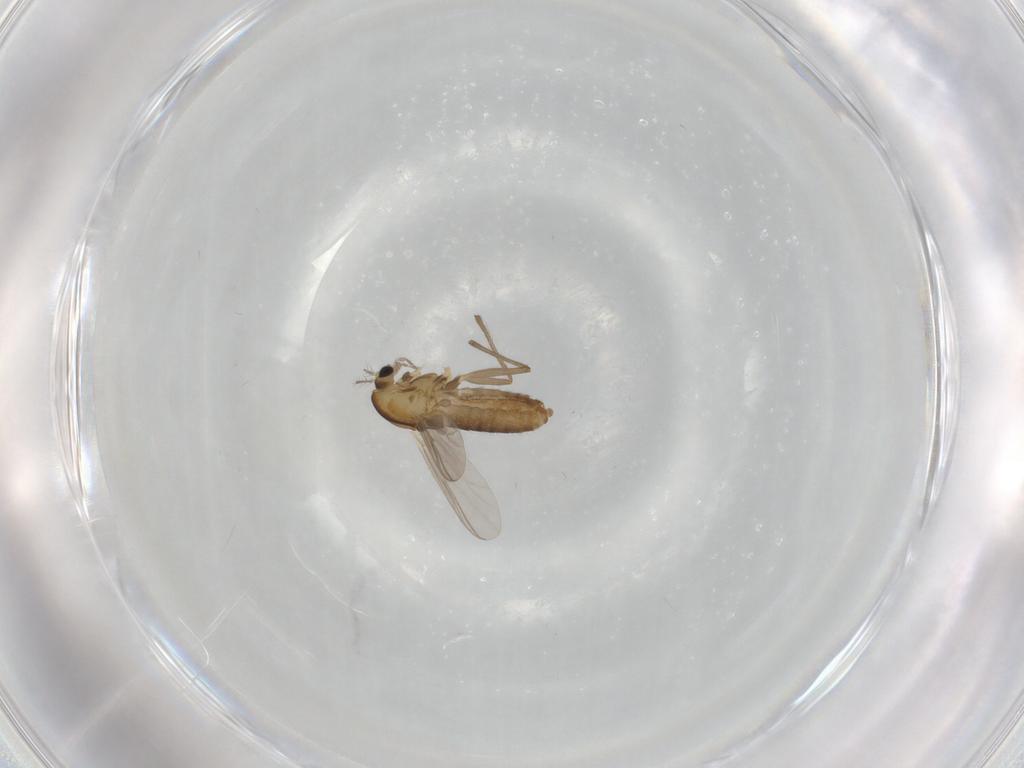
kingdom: Animalia
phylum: Arthropoda
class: Insecta
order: Diptera
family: Chironomidae
